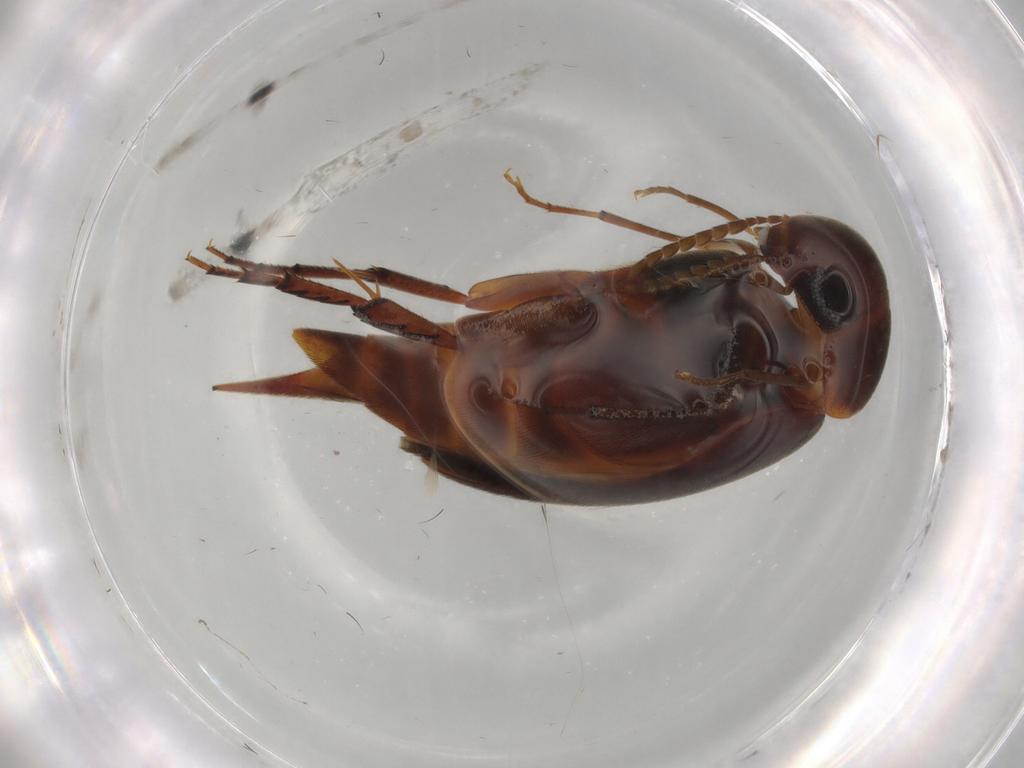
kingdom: Animalia
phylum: Arthropoda
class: Insecta
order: Coleoptera
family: Mordellidae
